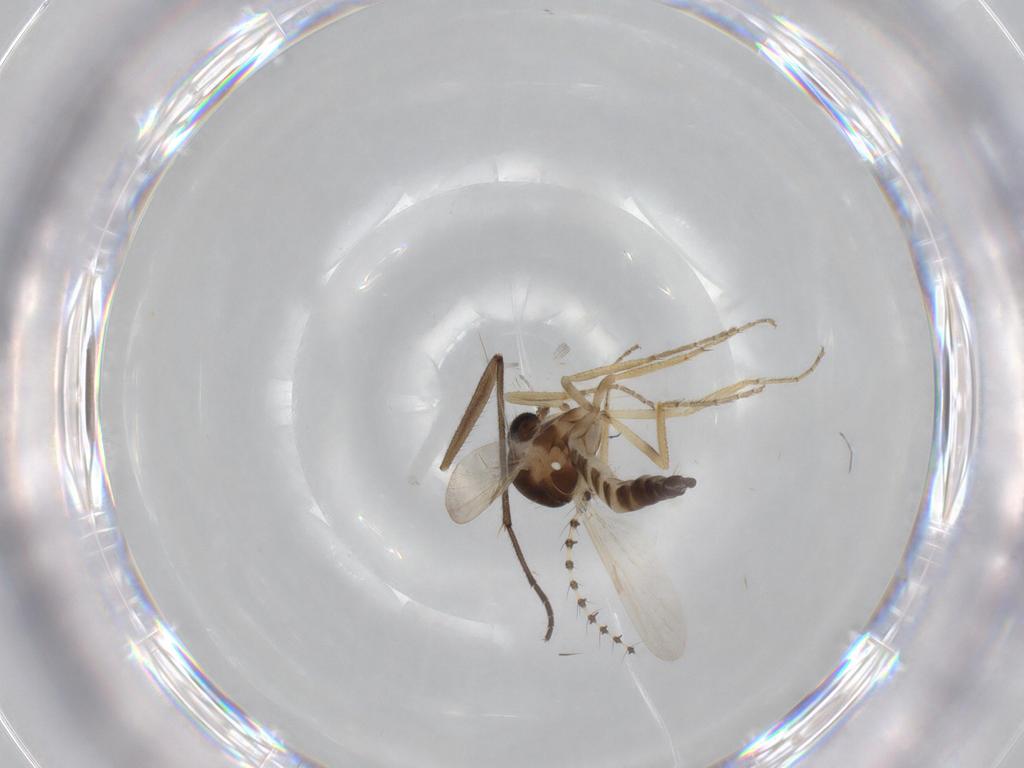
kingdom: Animalia
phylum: Arthropoda
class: Insecta
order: Diptera
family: Ceratopogonidae
